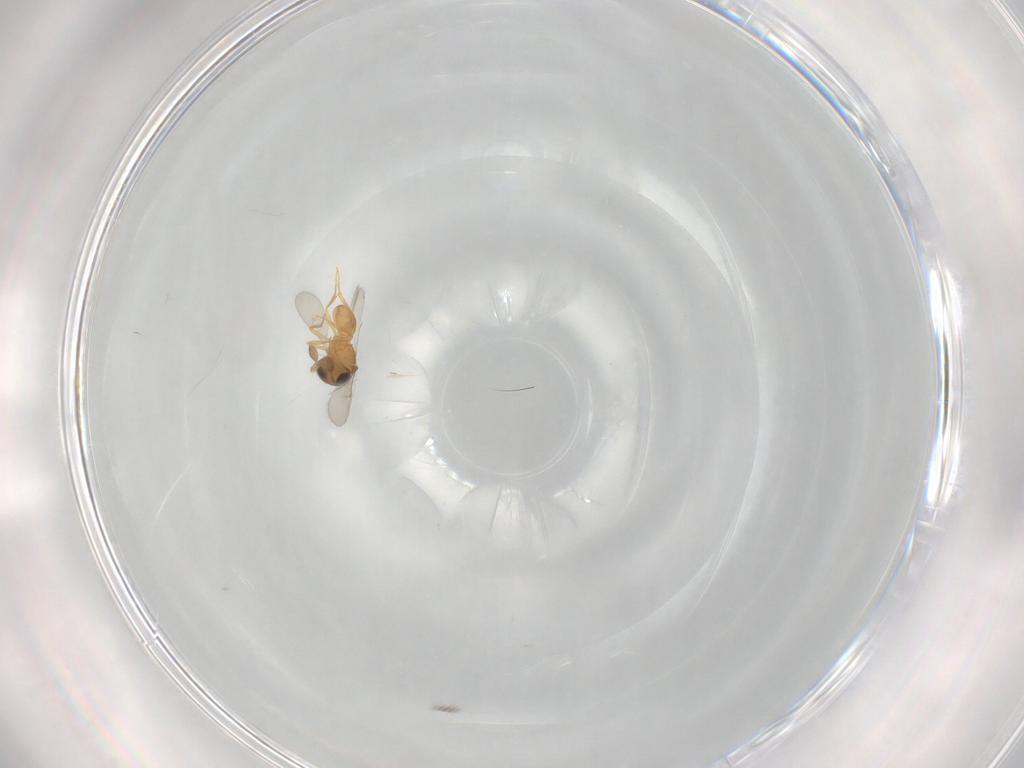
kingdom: Animalia
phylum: Arthropoda
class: Insecta
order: Hymenoptera
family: Scelionidae
